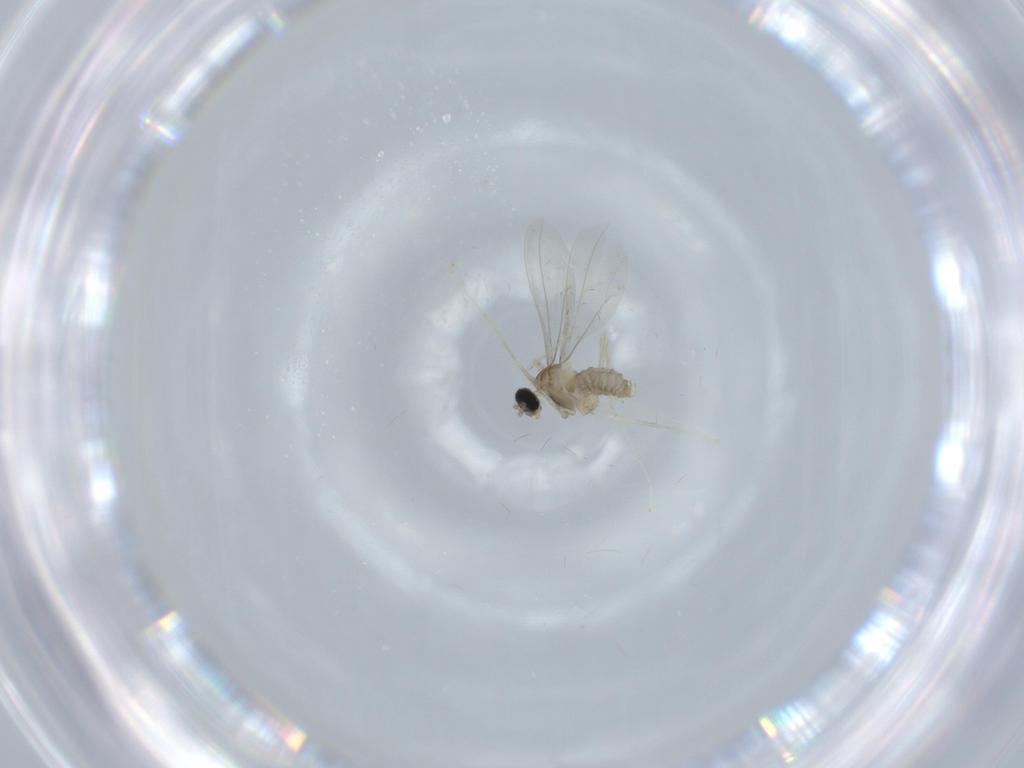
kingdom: Animalia
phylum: Arthropoda
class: Insecta
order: Diptera
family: Cecidomyiidae
